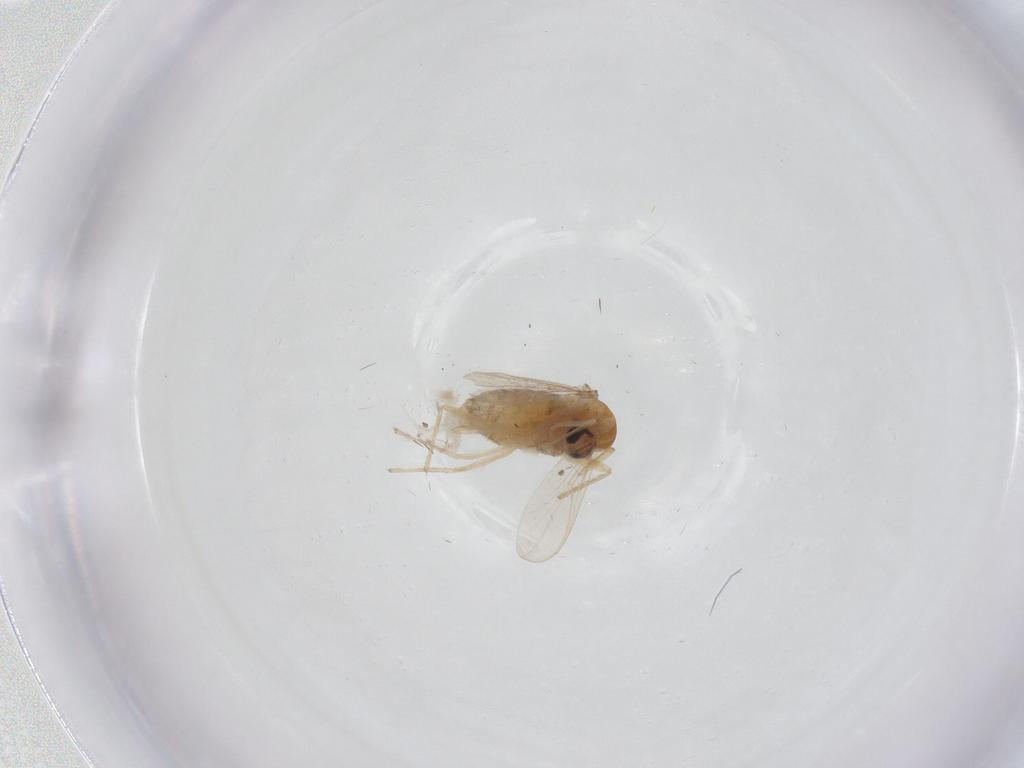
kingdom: Animalia
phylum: Arthropoda
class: Insecta
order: Diptera
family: Chironomidae
